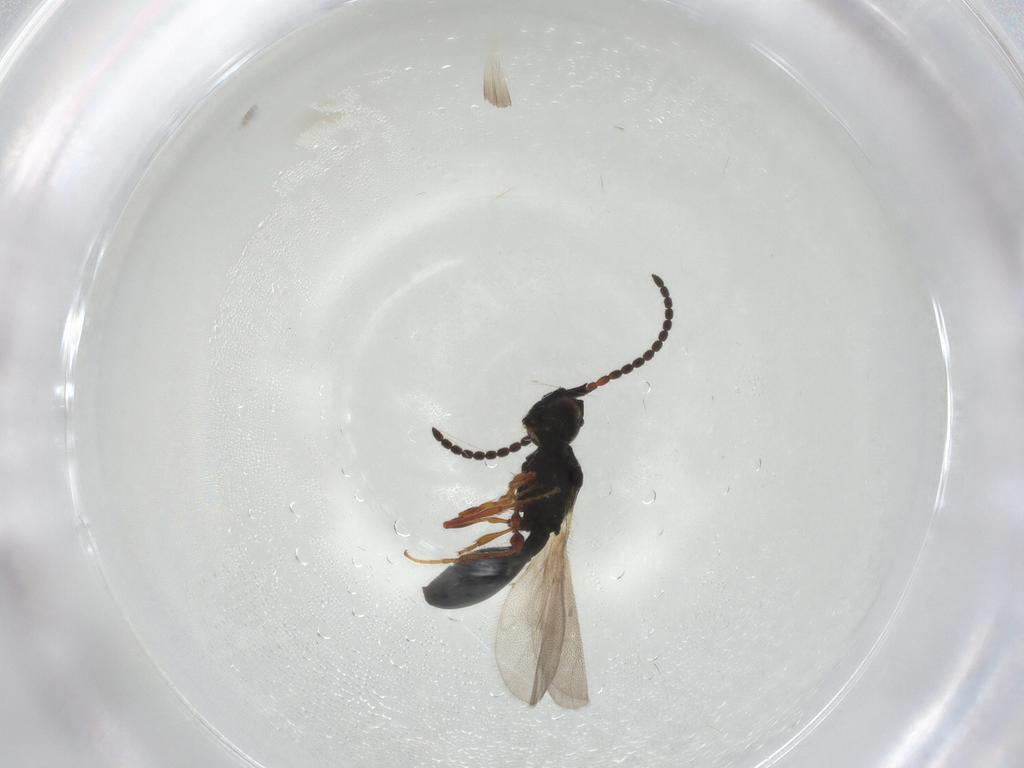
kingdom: Animalia
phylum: Arthropoda
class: Insecta
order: Hymenoptera
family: Diapriidae
